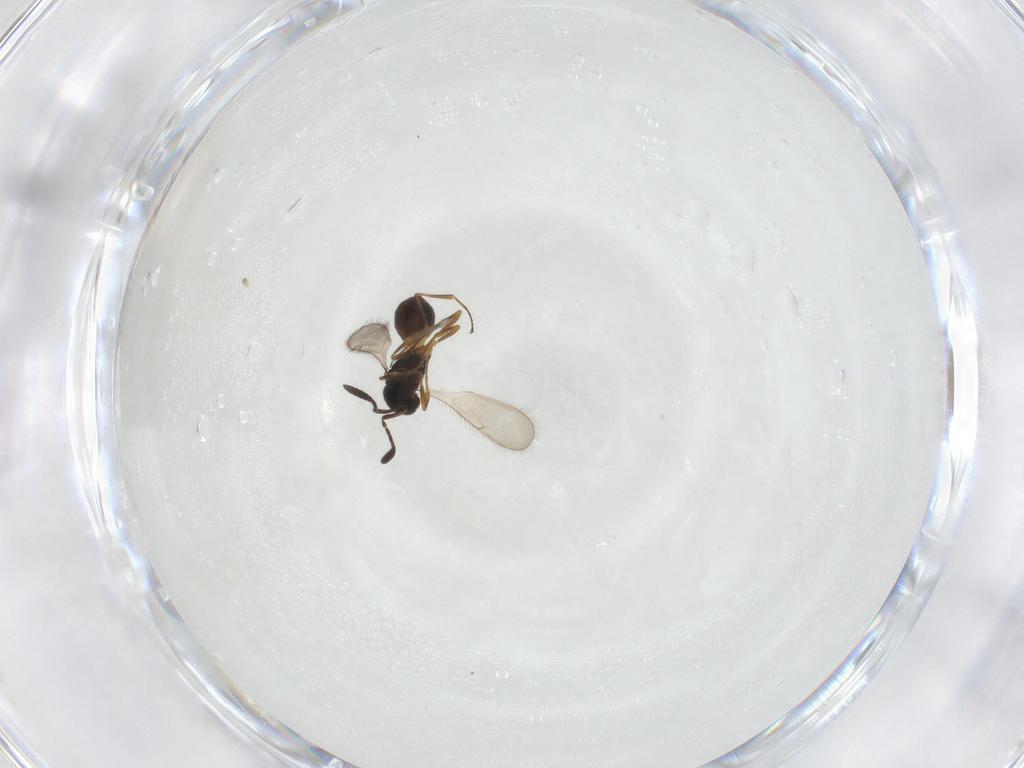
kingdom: Animalia
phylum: Arthropoda
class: Insecta
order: Hymenoptera
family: Scelionidae
